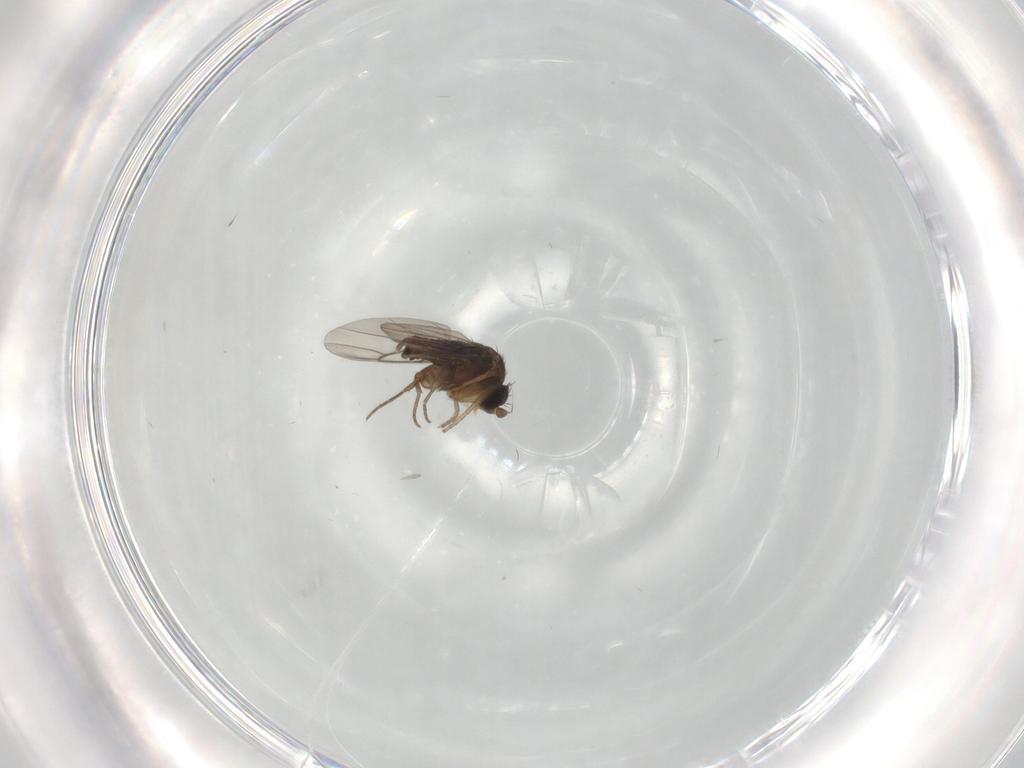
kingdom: Animalia
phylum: Arthropoda
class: Insecta
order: Diptera
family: Phoridae
